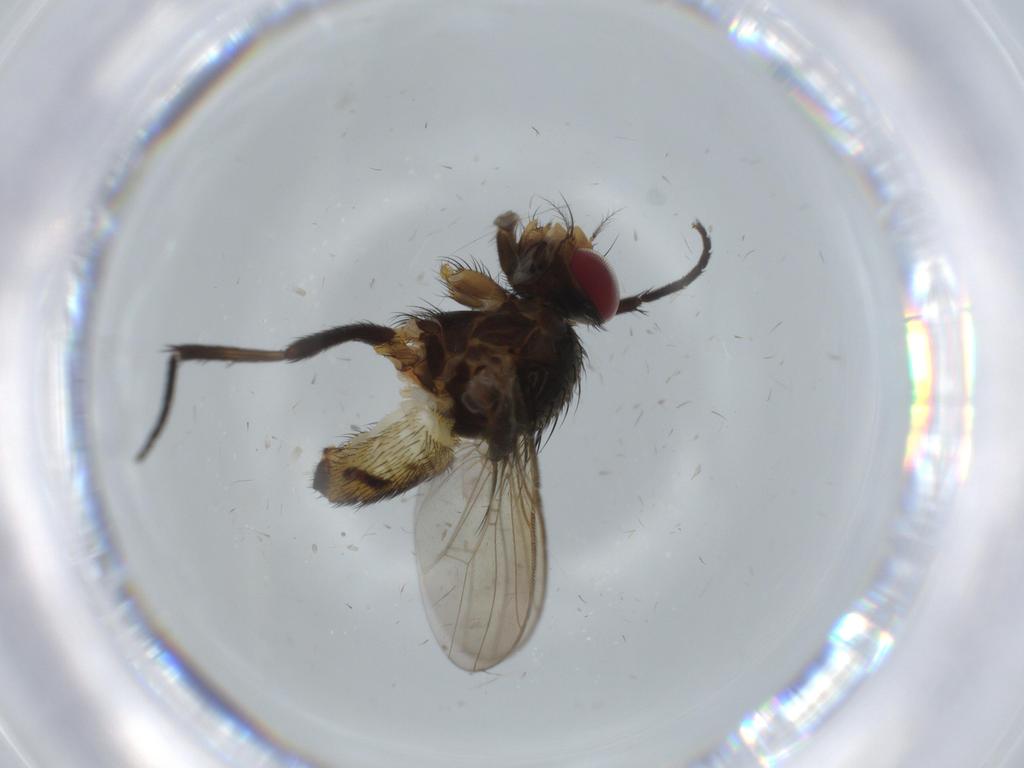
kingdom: Animalia
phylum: Arthropoda
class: Insecta
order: Diptera
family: Anthomyiidae
